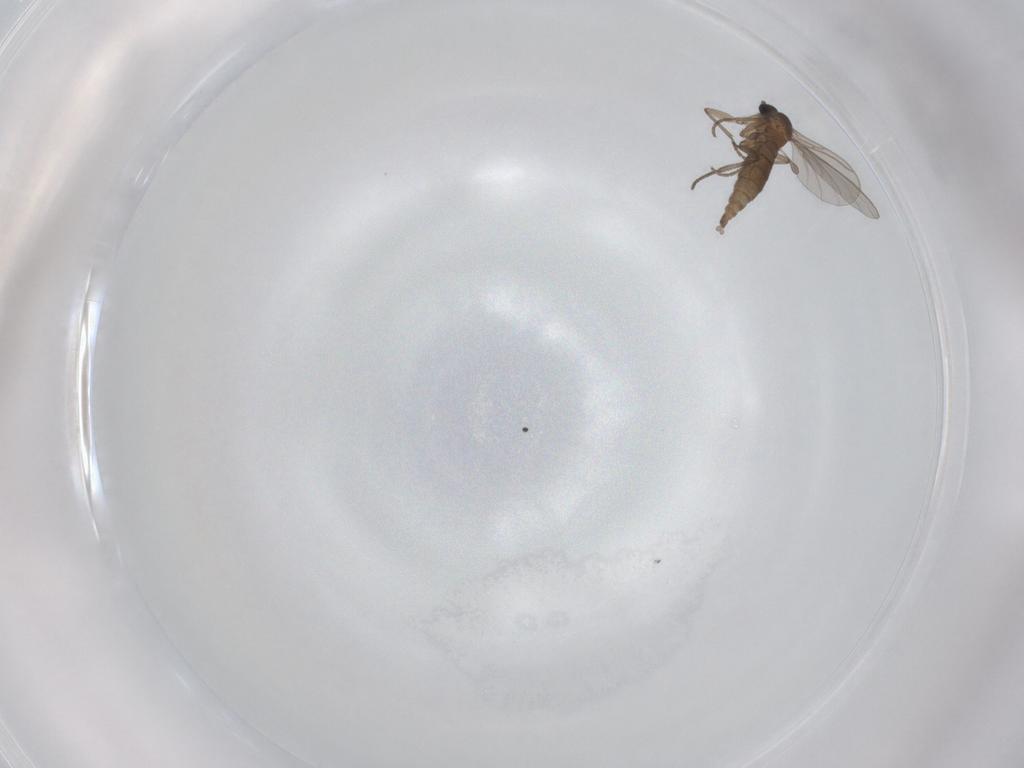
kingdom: Animalia
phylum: Arthropoda
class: Insecta
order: Diptera
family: Sciaridae
